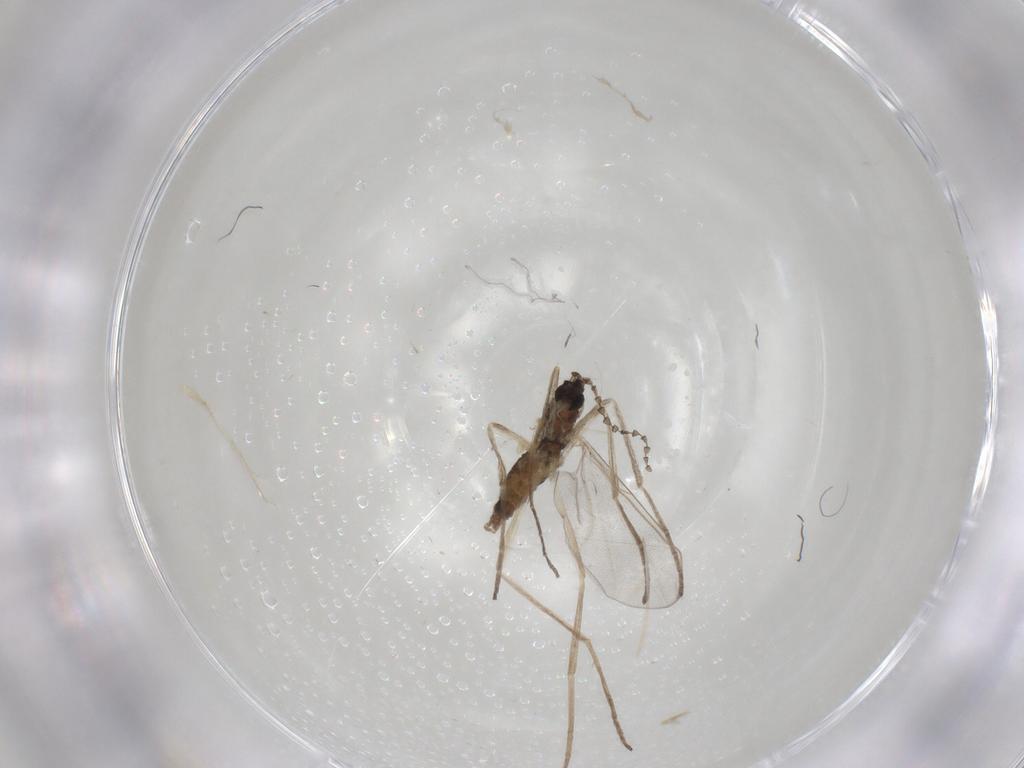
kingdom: Animalia
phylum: Arthropoda
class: Insecta
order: Diptera
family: Cecidomyiidae
